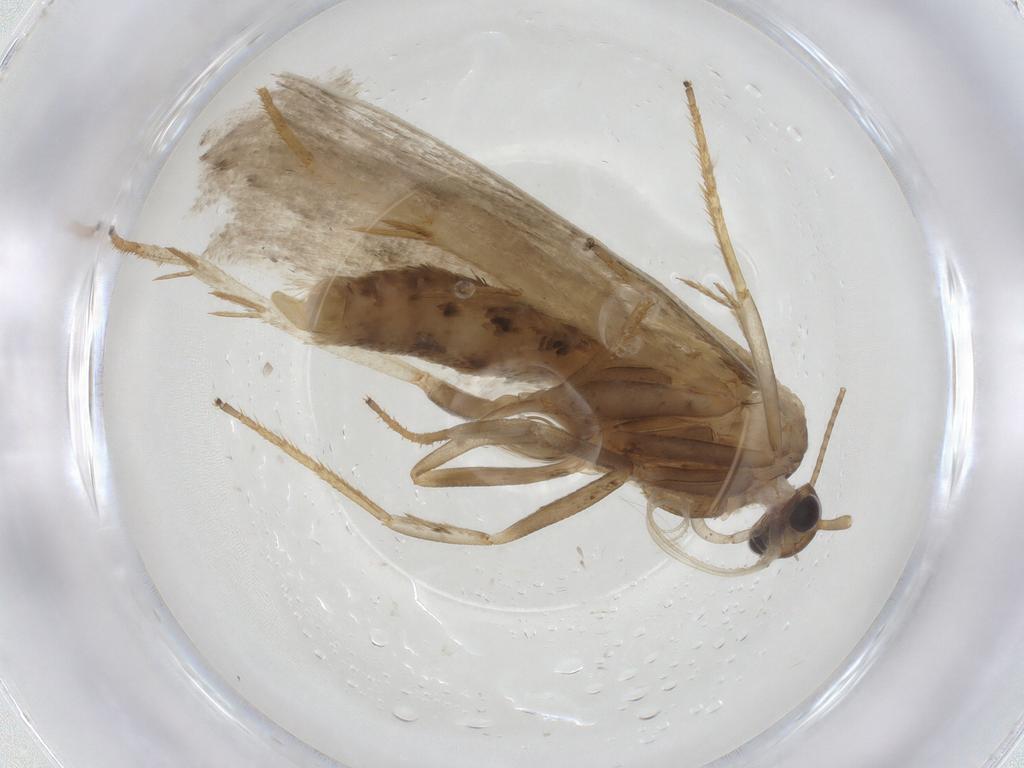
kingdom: Animalia
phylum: Arthropoda
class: Insecta
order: Lepidoptera
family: Depressariidae
